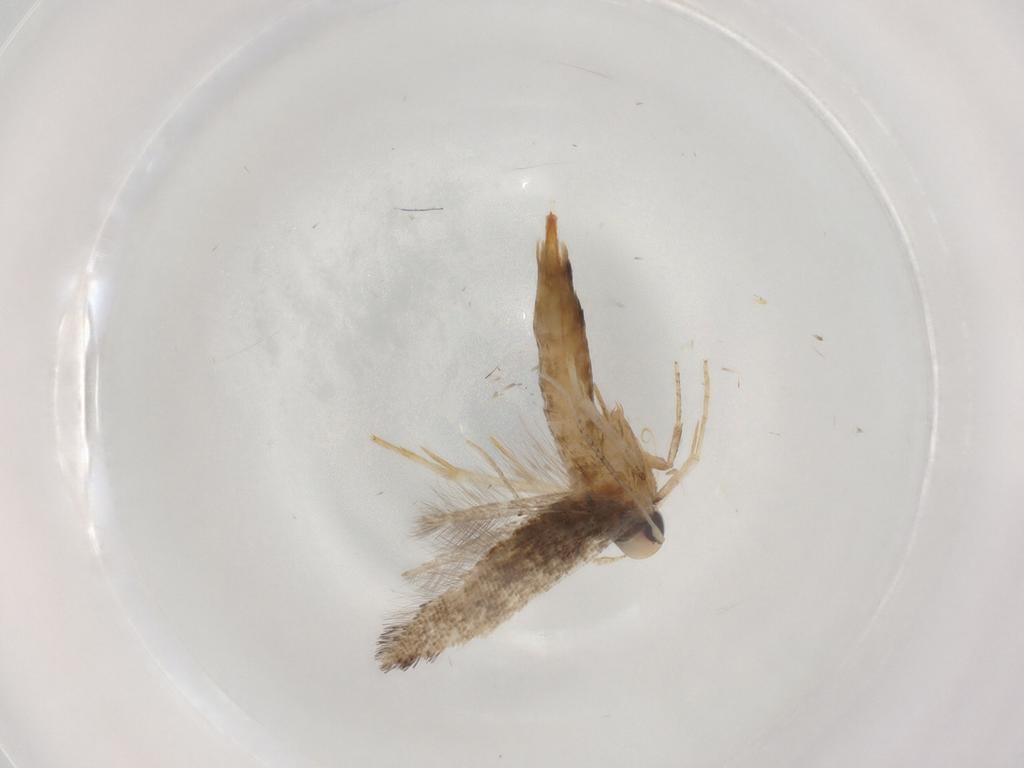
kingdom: Animalia
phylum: Arthropoda
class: Insecta
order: Lepidoptera
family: Cosmopterigidae
